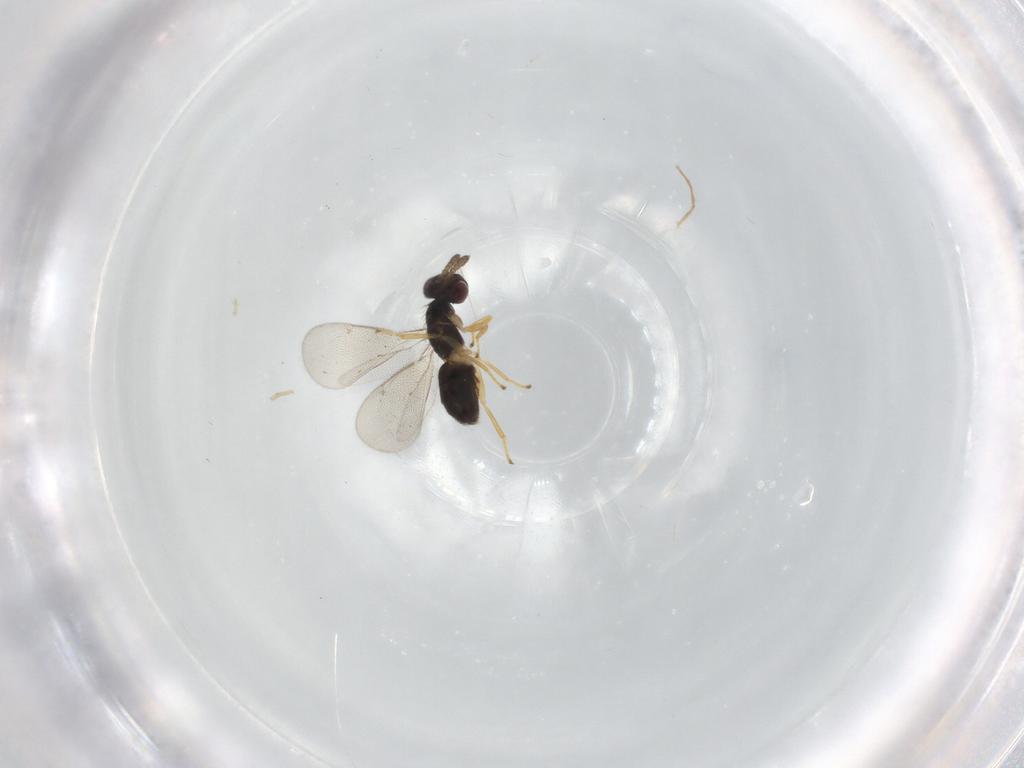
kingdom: Animalia
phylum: Arthropoda
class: Insecta
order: Hymenoptera
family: Eulophidae
